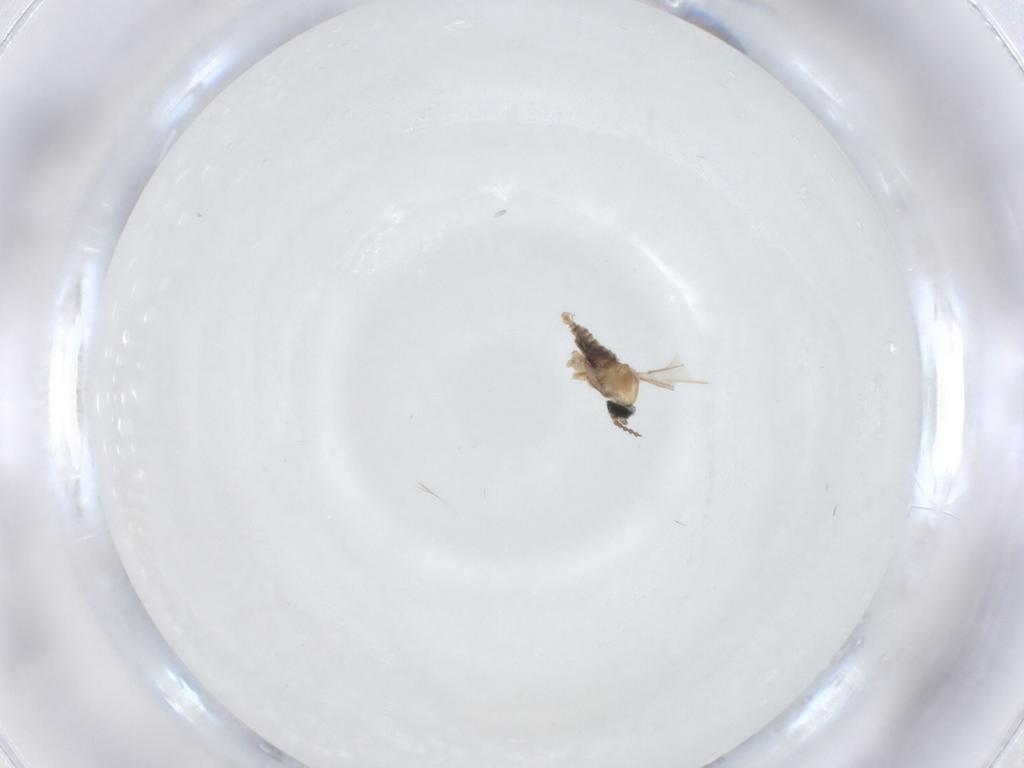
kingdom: Animalia
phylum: Arthropoda
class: Insecta
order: Diptera
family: Cecidomyiidae
